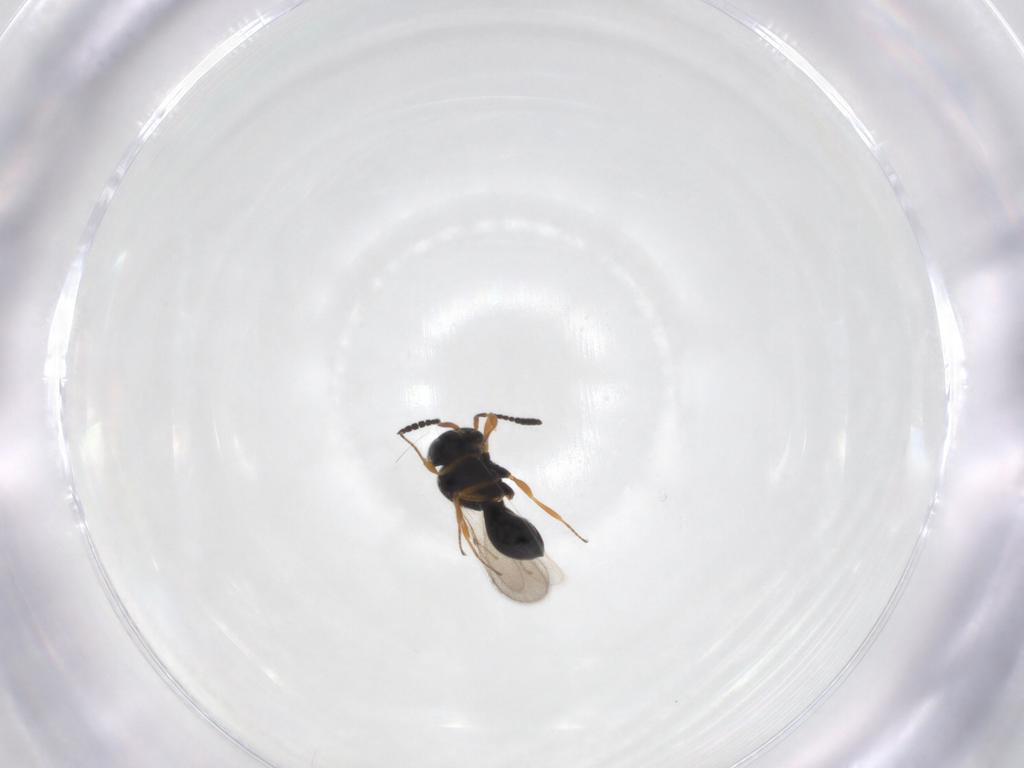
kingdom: Animalia
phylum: Arthropoda
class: Insecta
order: Hymenoptera
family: Scelionidae
